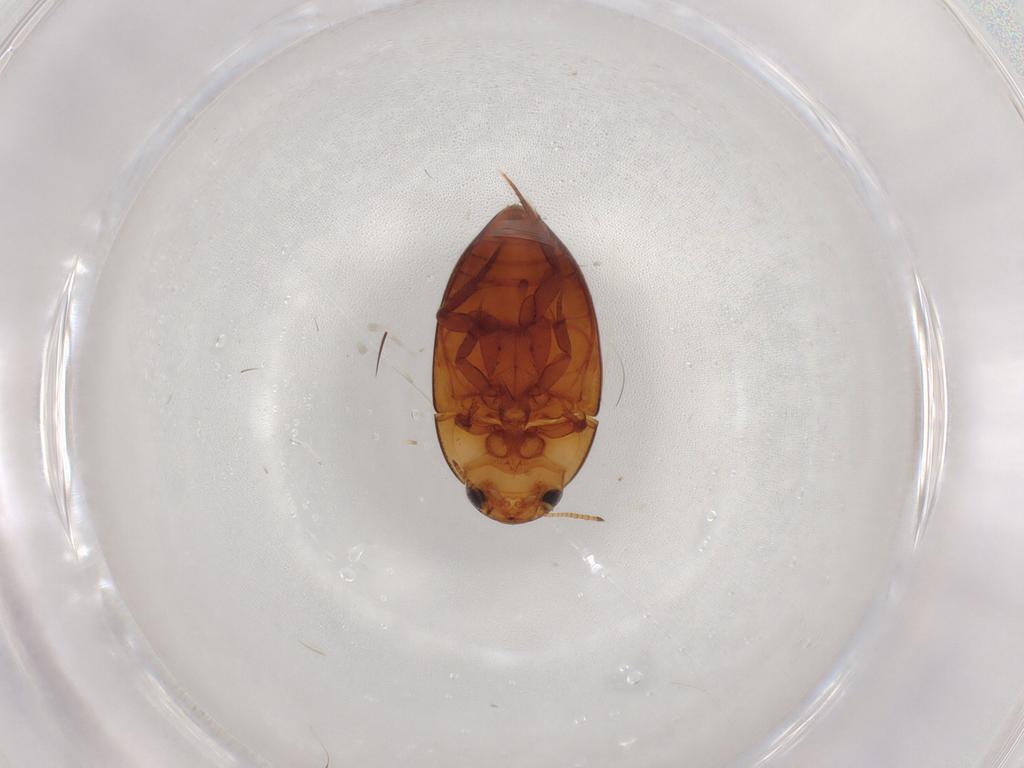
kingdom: Animalia
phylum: Arthropoda
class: Insecta
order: Coleoptera
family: Noteridae
